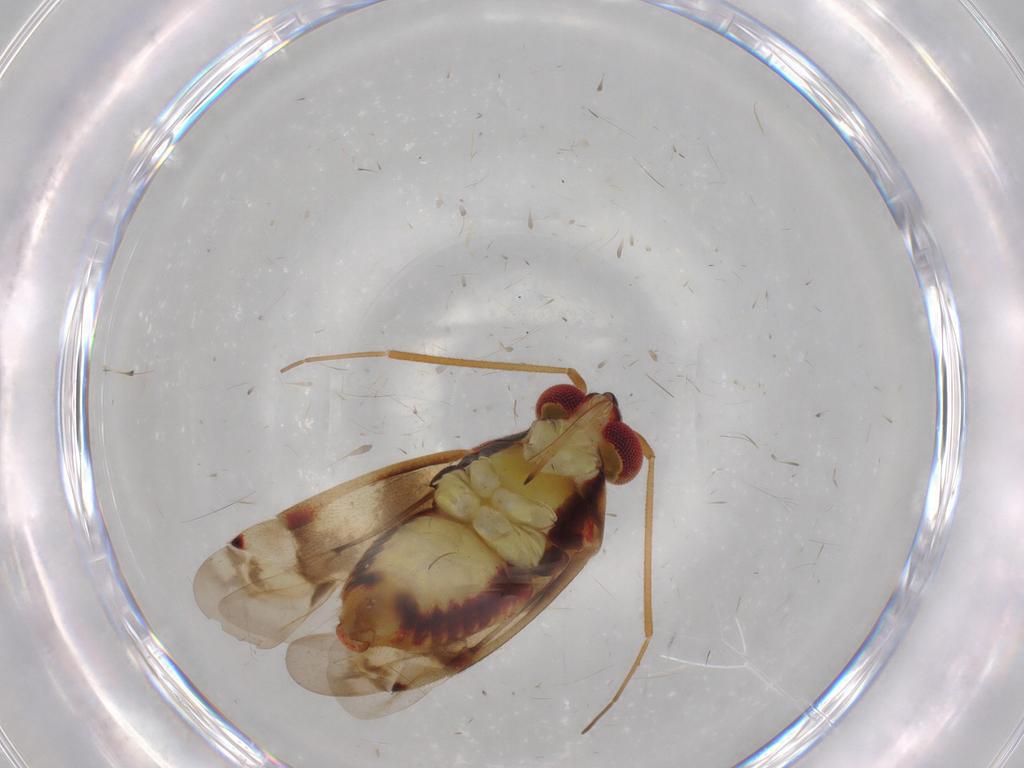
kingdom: Animalia
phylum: Arthropoda
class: Insecta
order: Hemiptera
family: Miridae
